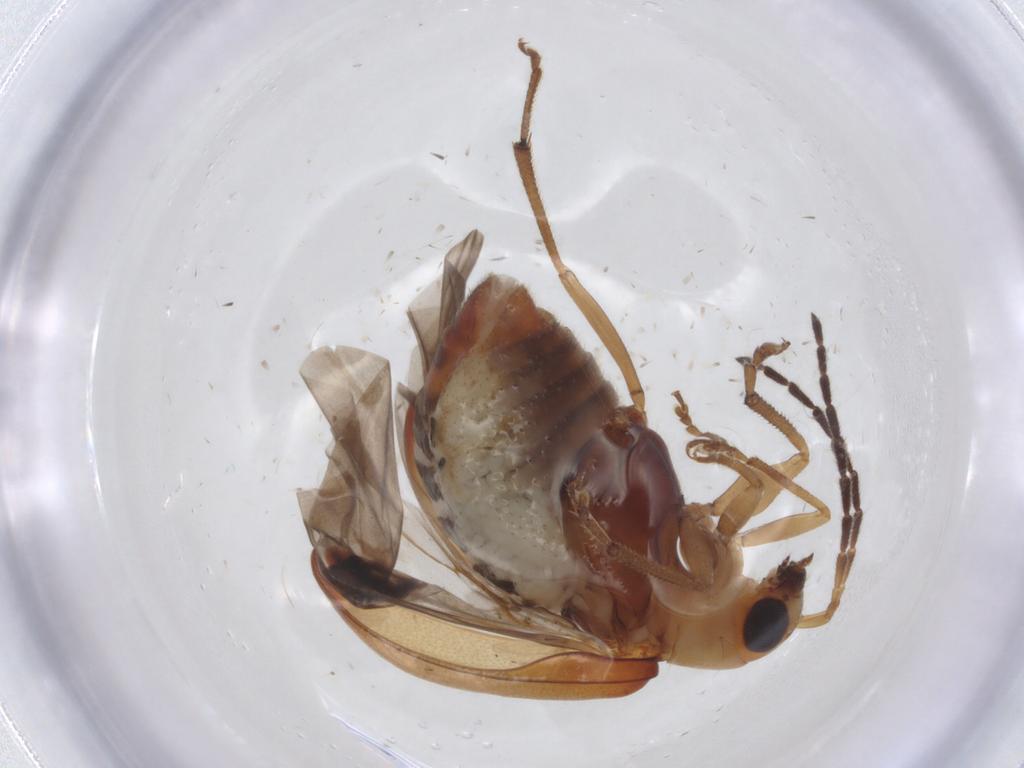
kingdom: Animalia
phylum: Arthropoda
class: Insecta
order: Coleoptera
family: Chrysomelidae
